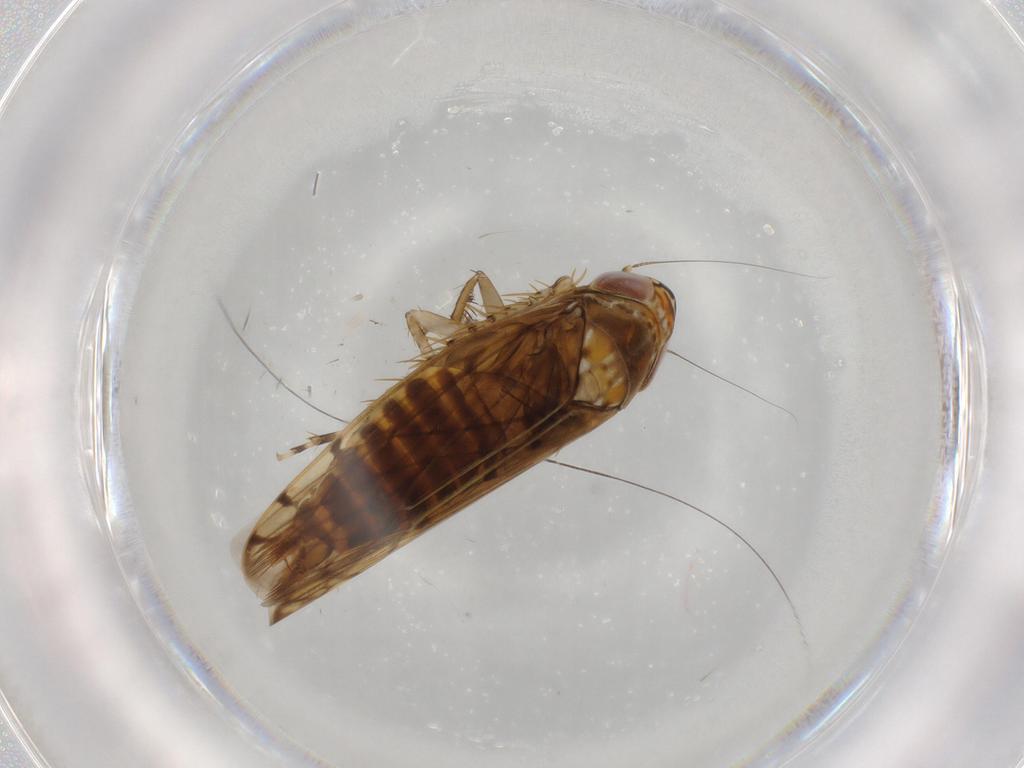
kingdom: Animalia
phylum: Arthropoda
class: Insecta
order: Hemiptera
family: Cicadellidae
